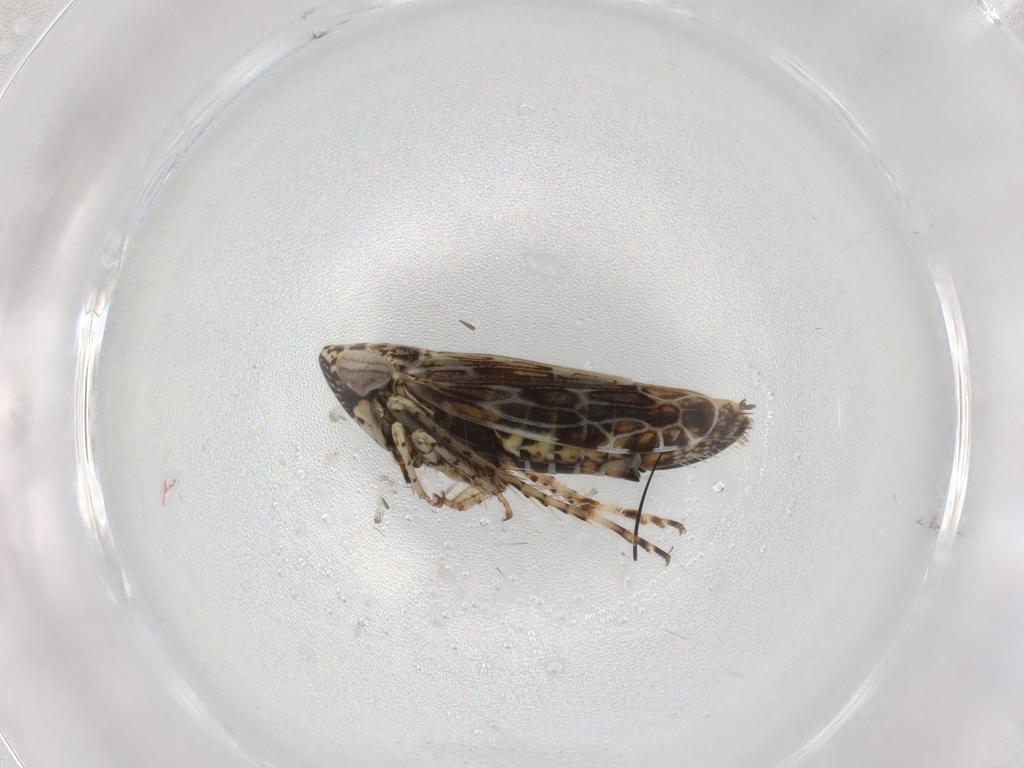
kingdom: Animalia
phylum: Arthropoda
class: Insecta
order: Hemiptera
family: Cicadellidae
